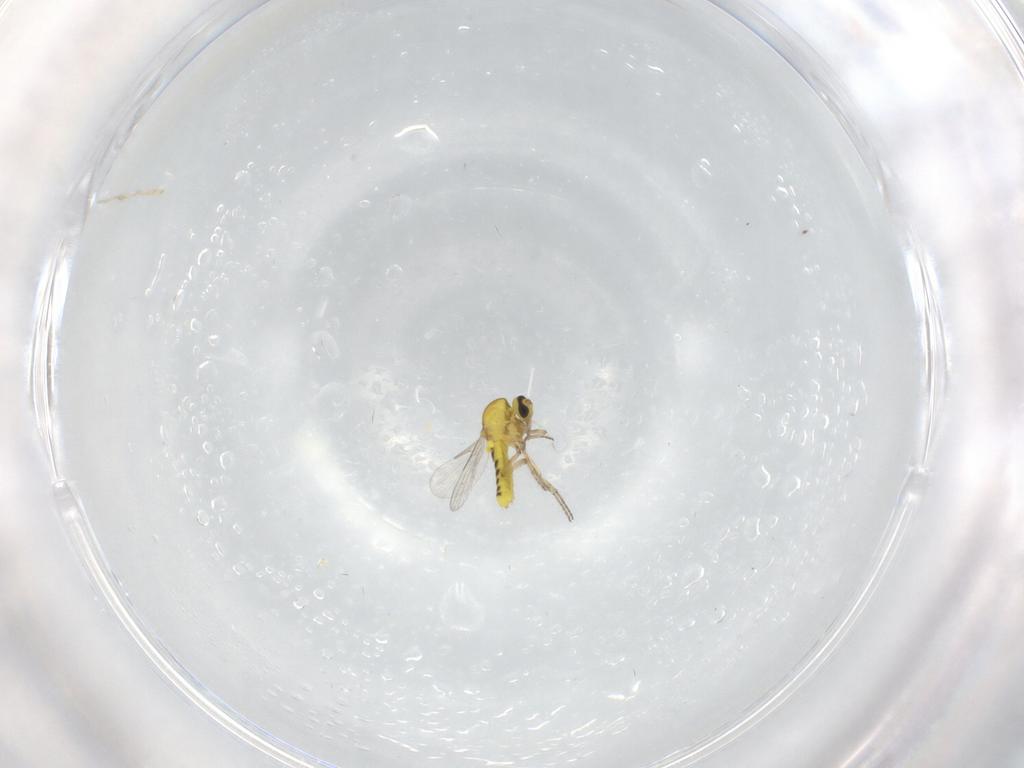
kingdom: Animalia
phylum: Arthropoda
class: Insecta
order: Diptera
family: Ceratopogonidae
